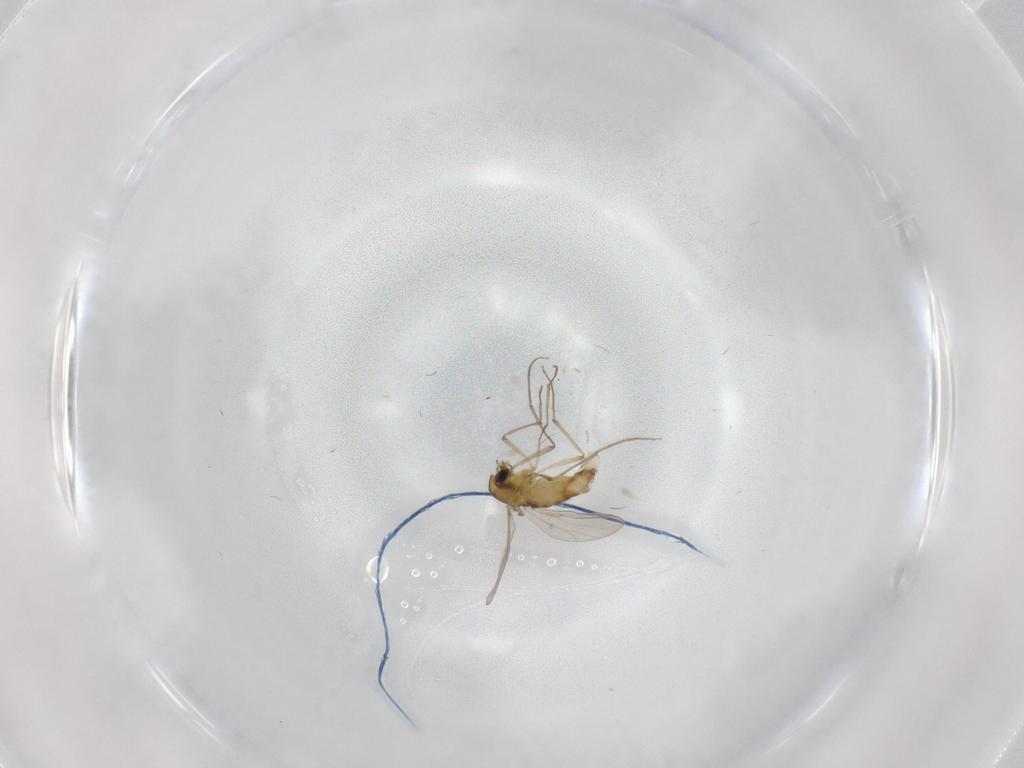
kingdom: Animalia
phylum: Arthropoda
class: Insecta
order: Diptera
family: Chironomidae
